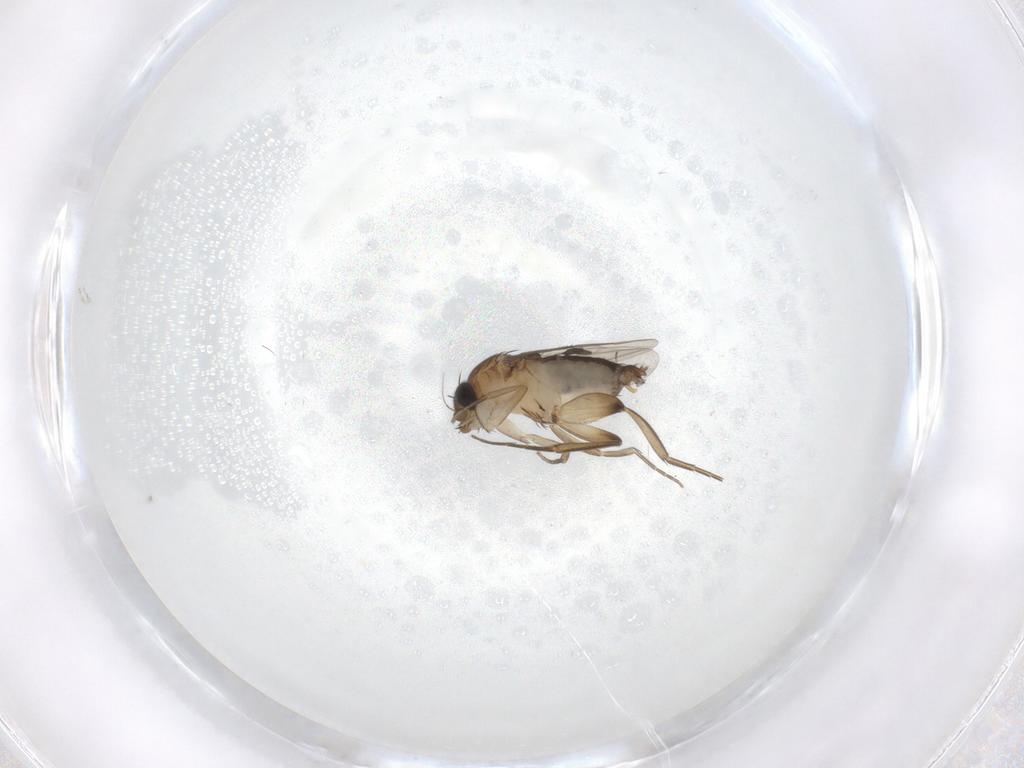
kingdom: Animalia
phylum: Arthropoda
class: Insecta
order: Diptera
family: Phoridae
